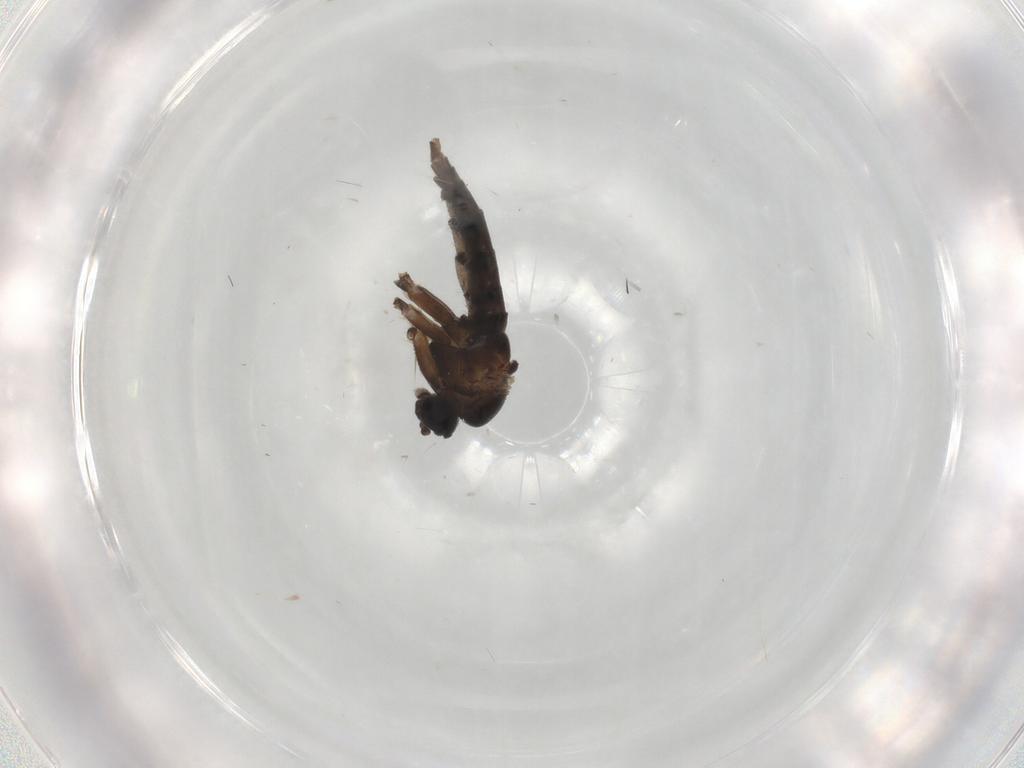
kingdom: Animalia
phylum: Arthropoda
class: Insecta
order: Diptera
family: Sciaridae
